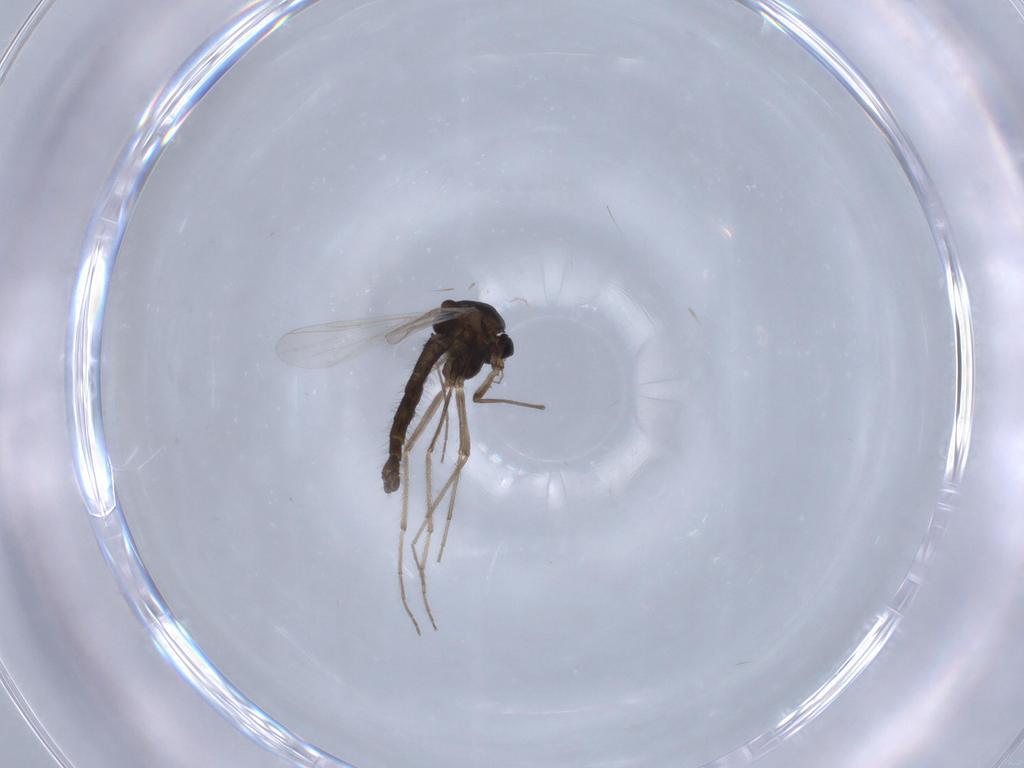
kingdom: Animalia
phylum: Arthropoda
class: Insecta
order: Diptera
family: Chironomidae
